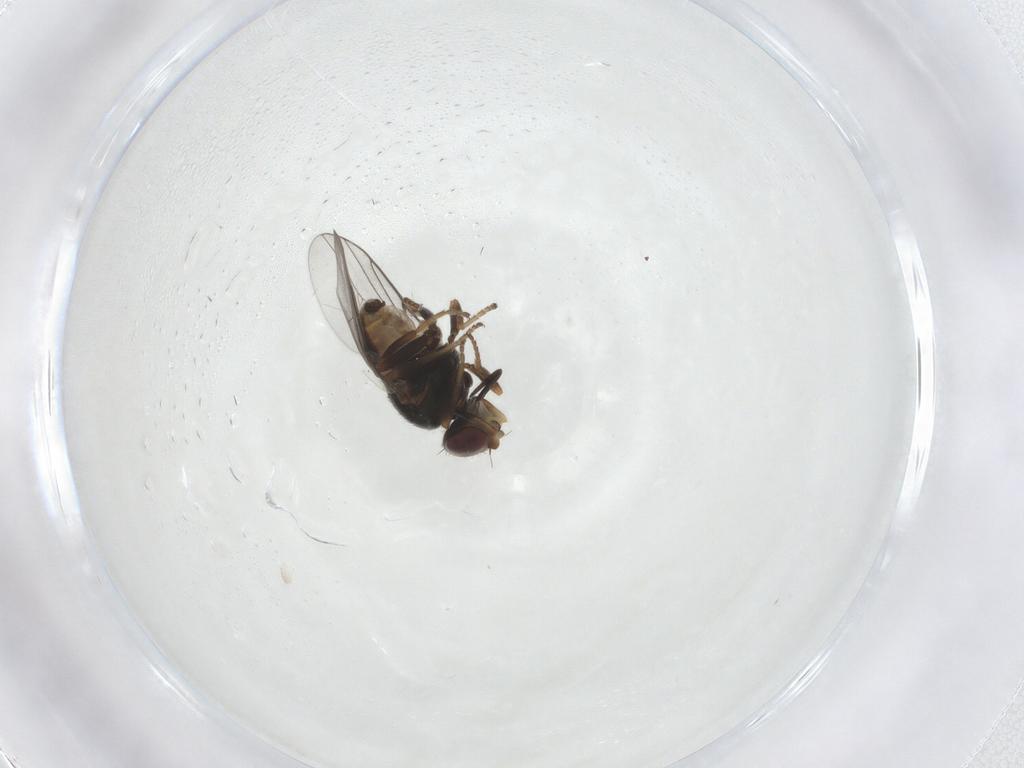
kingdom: Animalia
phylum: Arthropoda
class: Insecta
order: Diptera
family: Chloropidae
